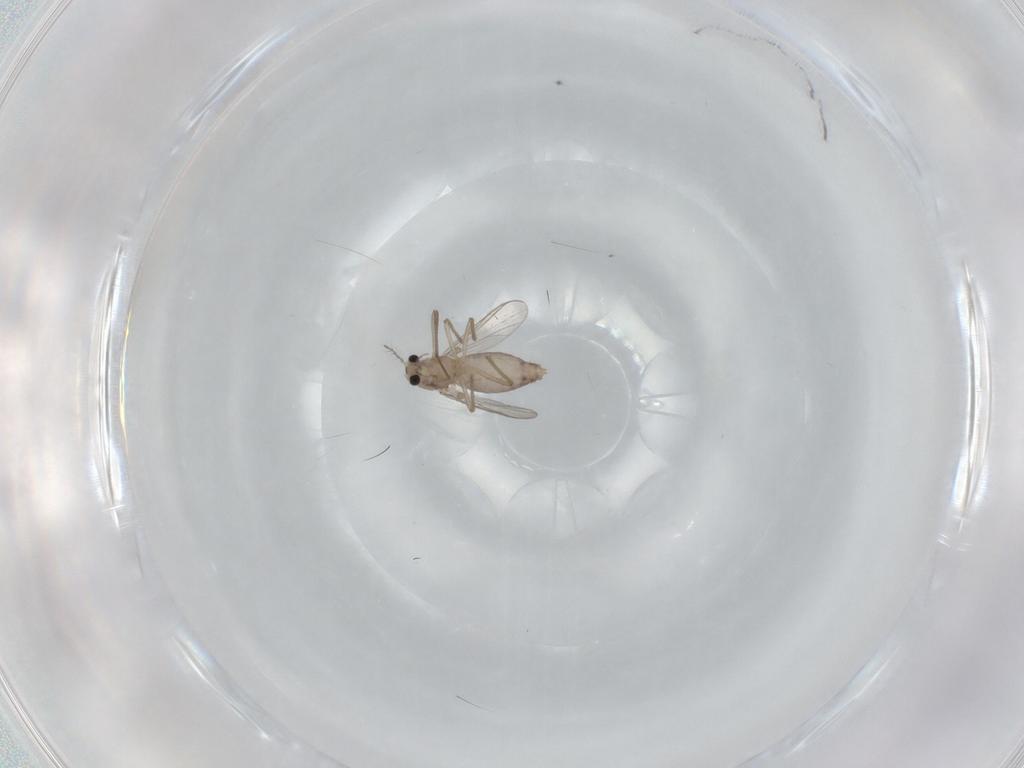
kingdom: Animalia
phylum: Arthropoda
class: Insecta
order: Diptera
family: Chironomidae
